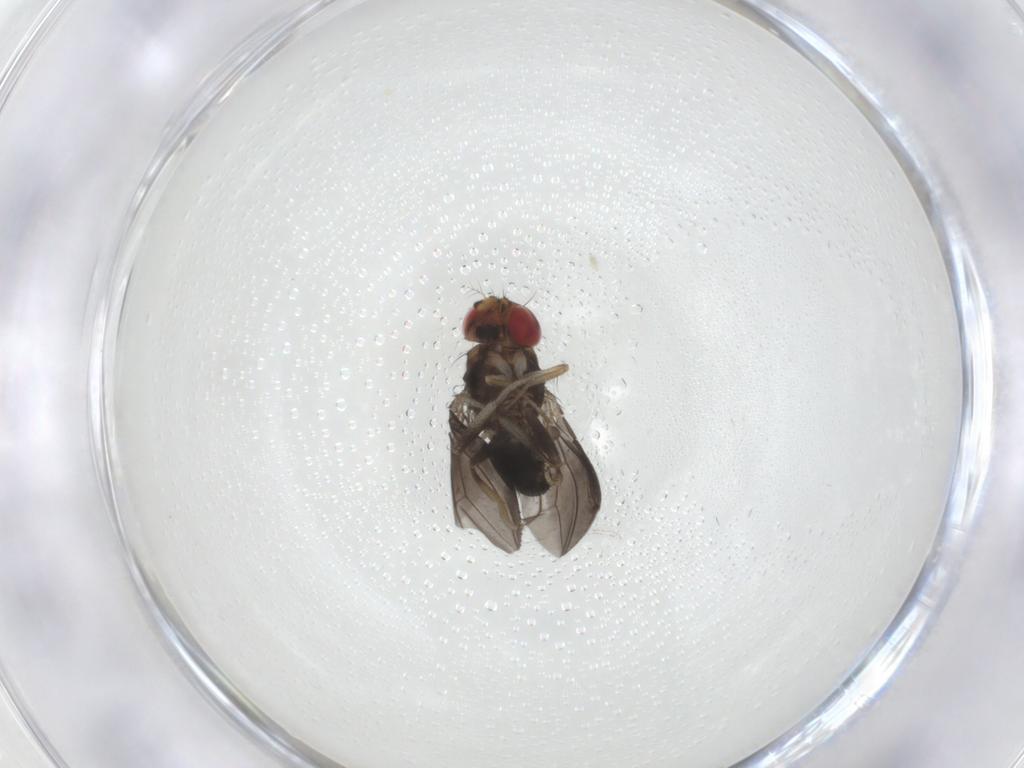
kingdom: Animalia
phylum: Arthropoda
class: Insecta
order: Diptera
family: Drosophilidae
